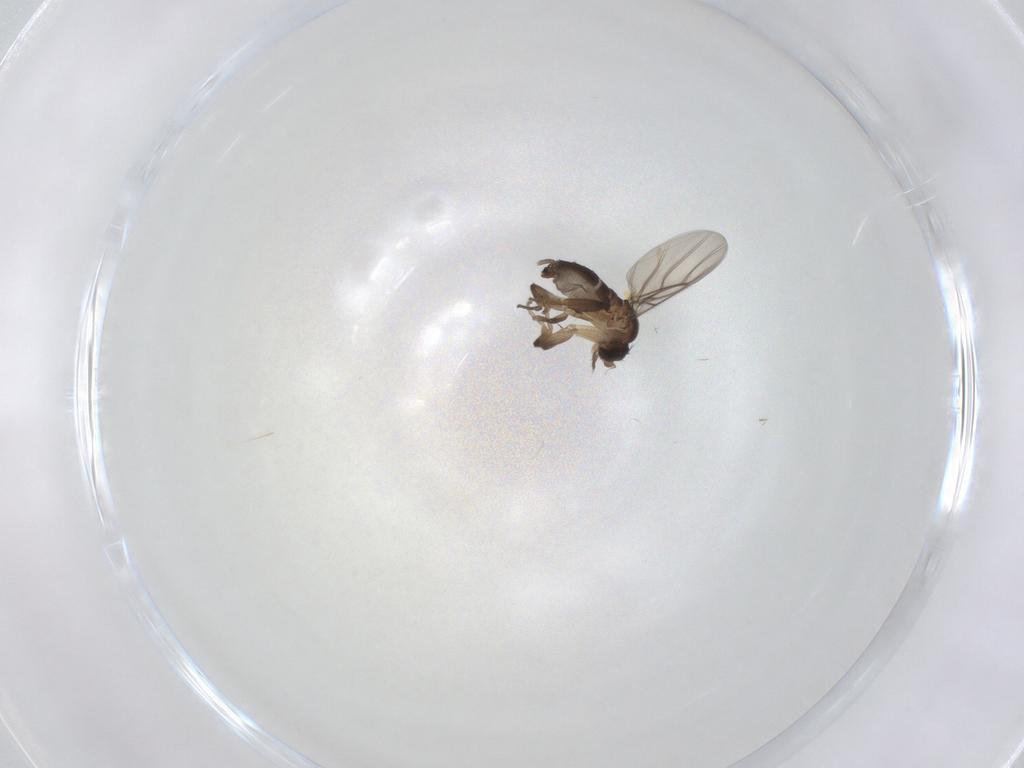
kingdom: Animalia
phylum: Arthropoda
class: Insecta
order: Diptera
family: Phoridae
